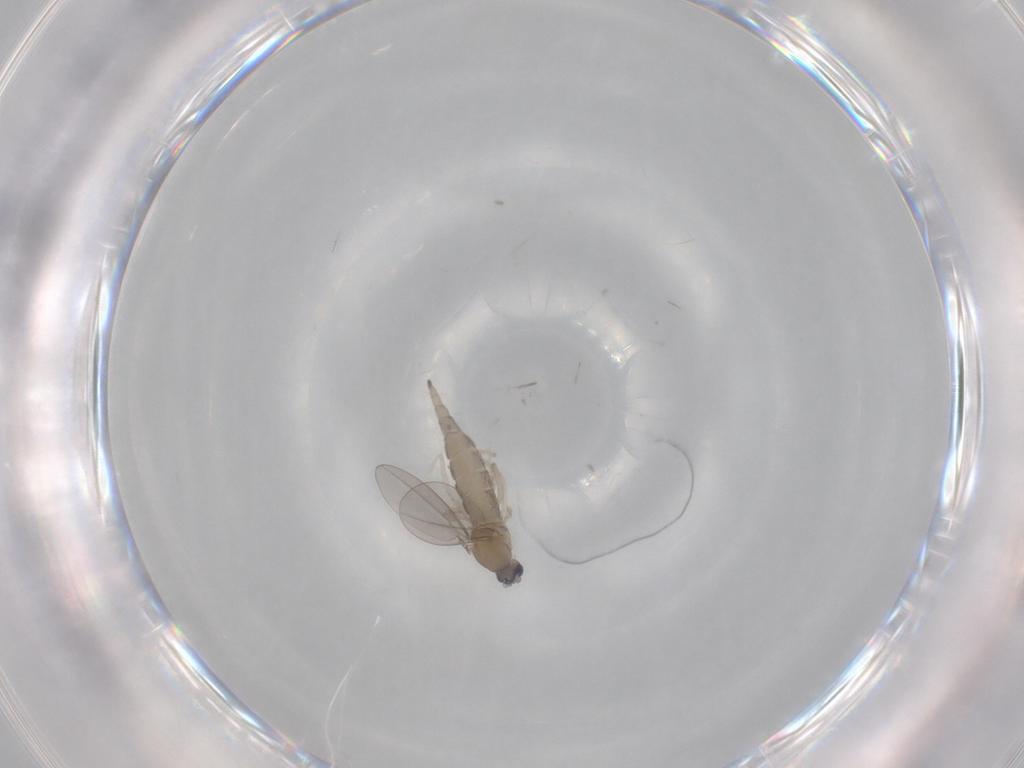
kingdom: Animalia
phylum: Arthropoda
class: Insecta
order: Diptera
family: Cecidomyiidae
